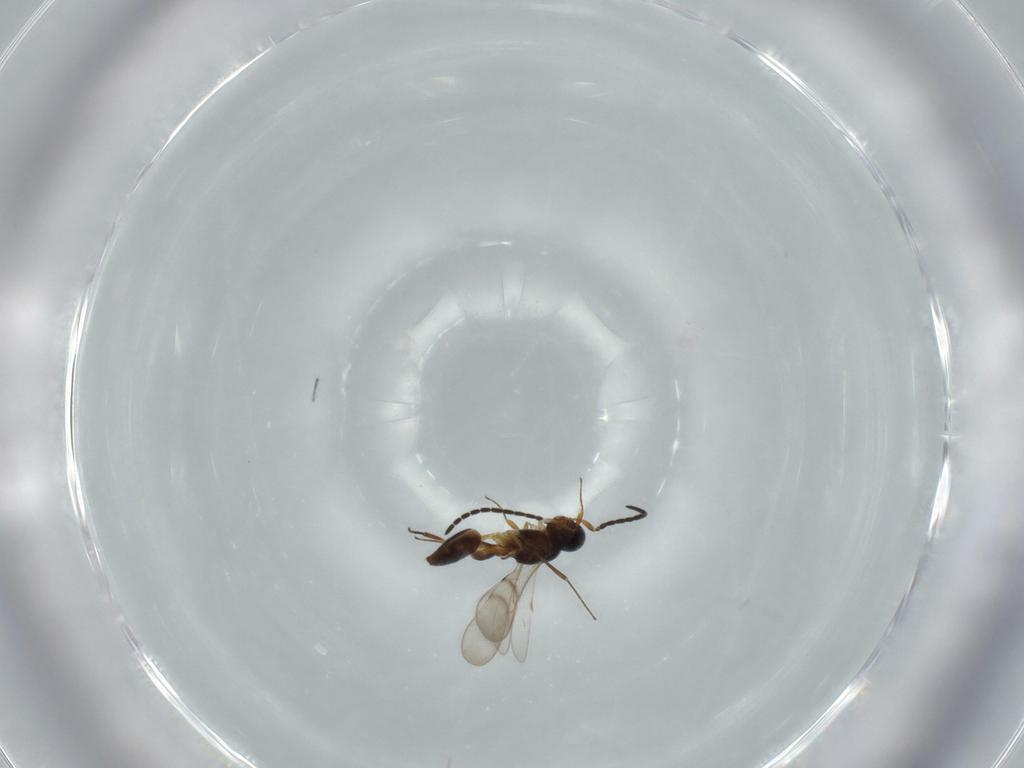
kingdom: Animalia
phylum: Arthropoda
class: Insecta
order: Hymenoptera
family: Scelionidae
